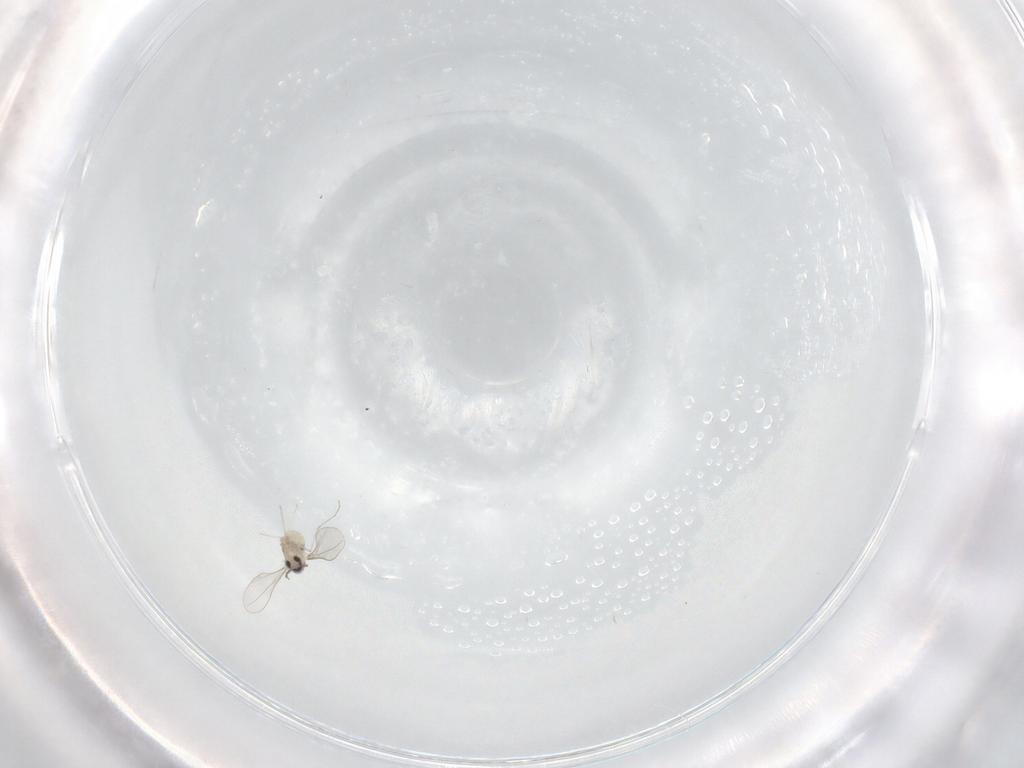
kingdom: Animalia
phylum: Arthropoda
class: Insecta
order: Diptera
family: Cecidomyiidae
